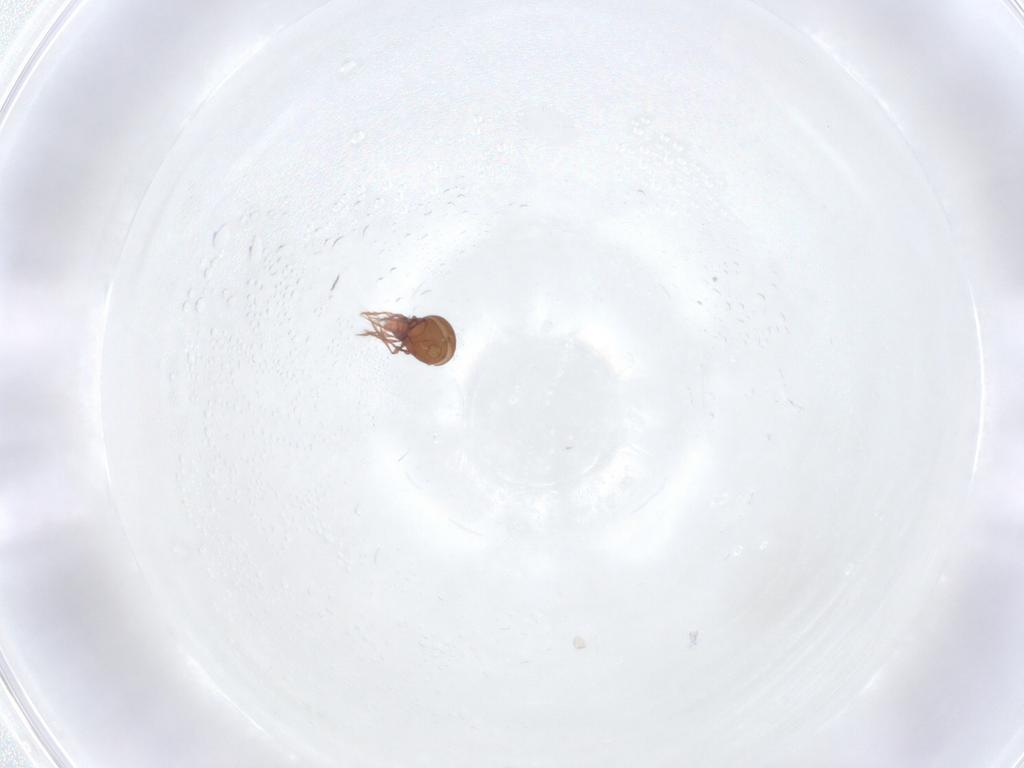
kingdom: Animalia
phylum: Arthropoda
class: Arachnida
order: Sarcoptiformes
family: Oppiidae
